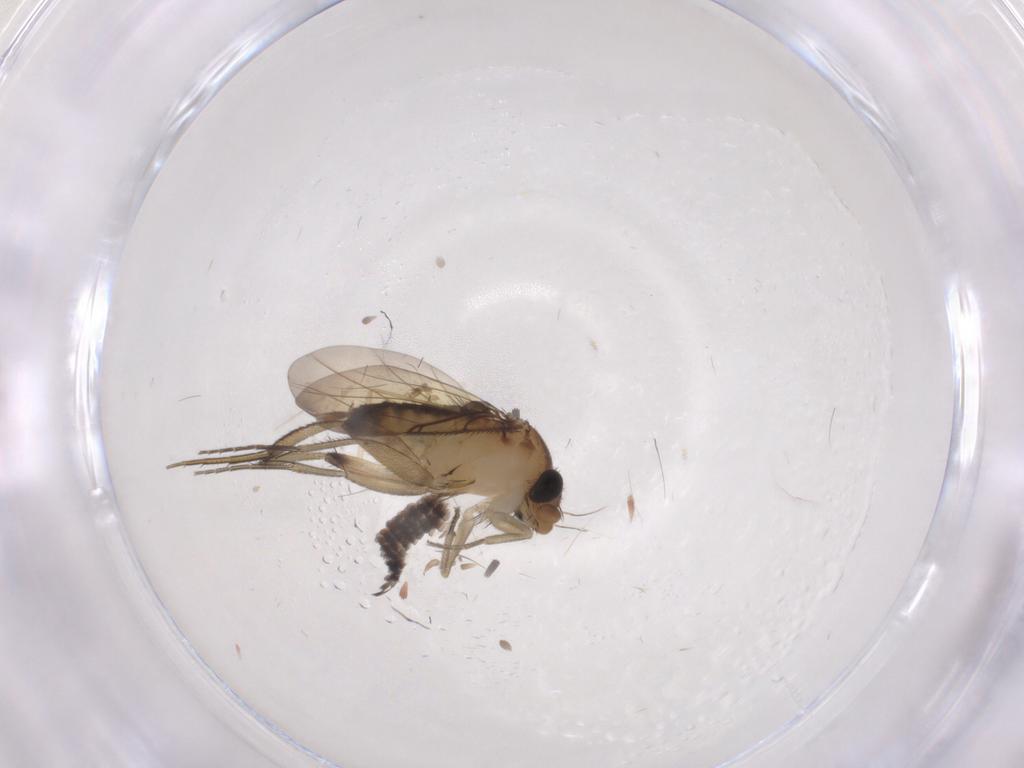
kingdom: Animalia
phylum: Arthropoda
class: Insecta
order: Diptera
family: Phoridae
